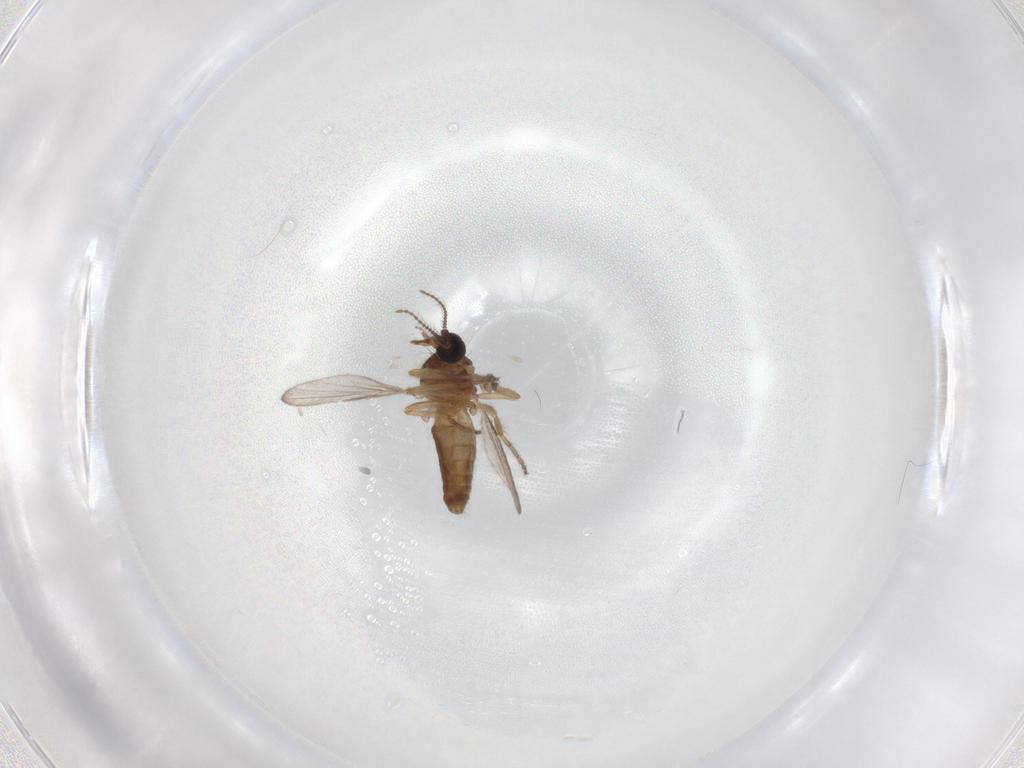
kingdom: Animalia
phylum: Arthropoda
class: Insecta
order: Diptera
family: Ceratopogonidae
